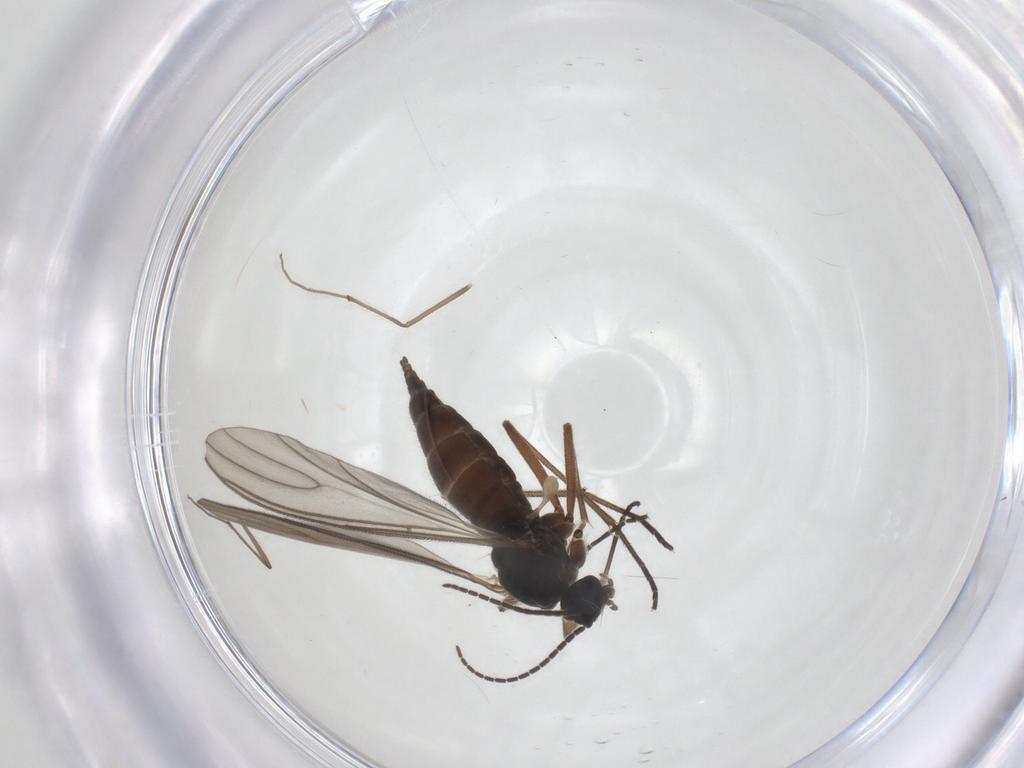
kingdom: Animalia
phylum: Arthropoda
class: Insecta
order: Diptera
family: Sciaridae
